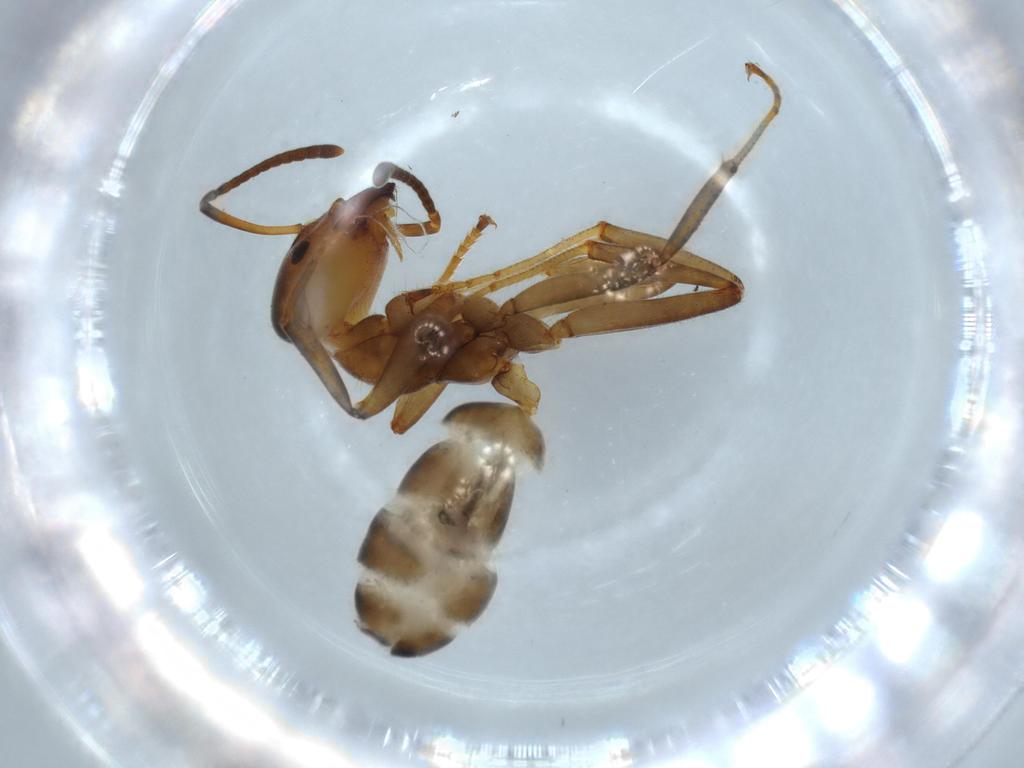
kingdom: Animalia
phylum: Arthropoda
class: Insecta
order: Hymenoptera
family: Formicidae
